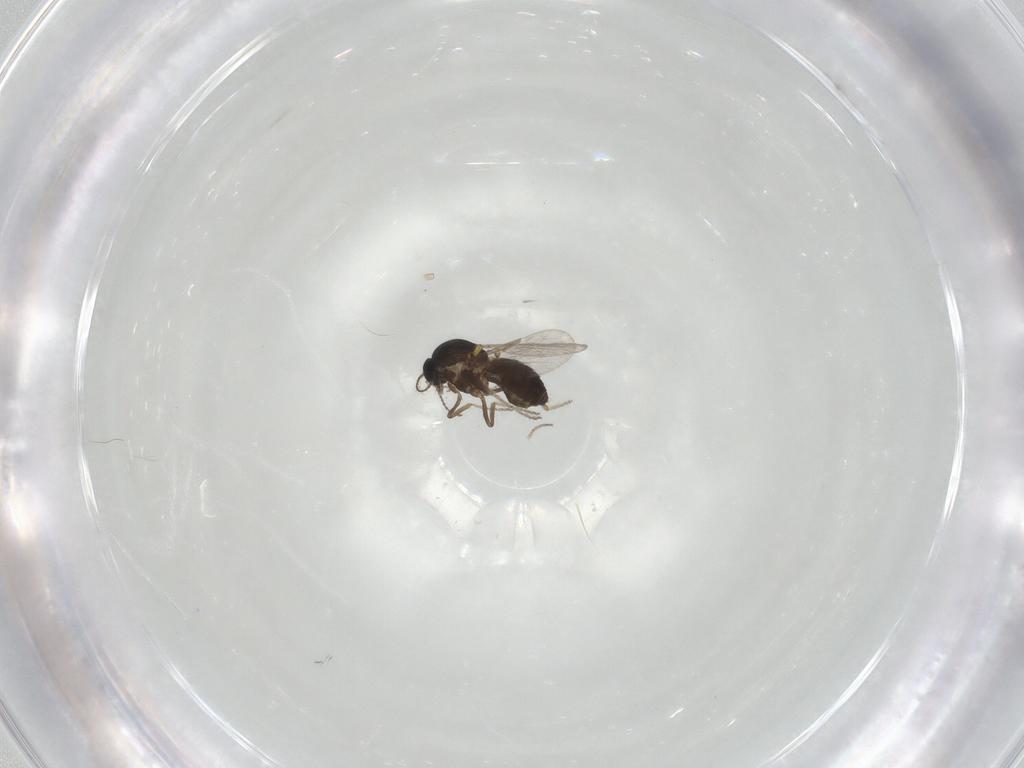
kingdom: Animalia
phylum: Arthropoda
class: Insecta
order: Diptera
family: Ceratopogonidae
